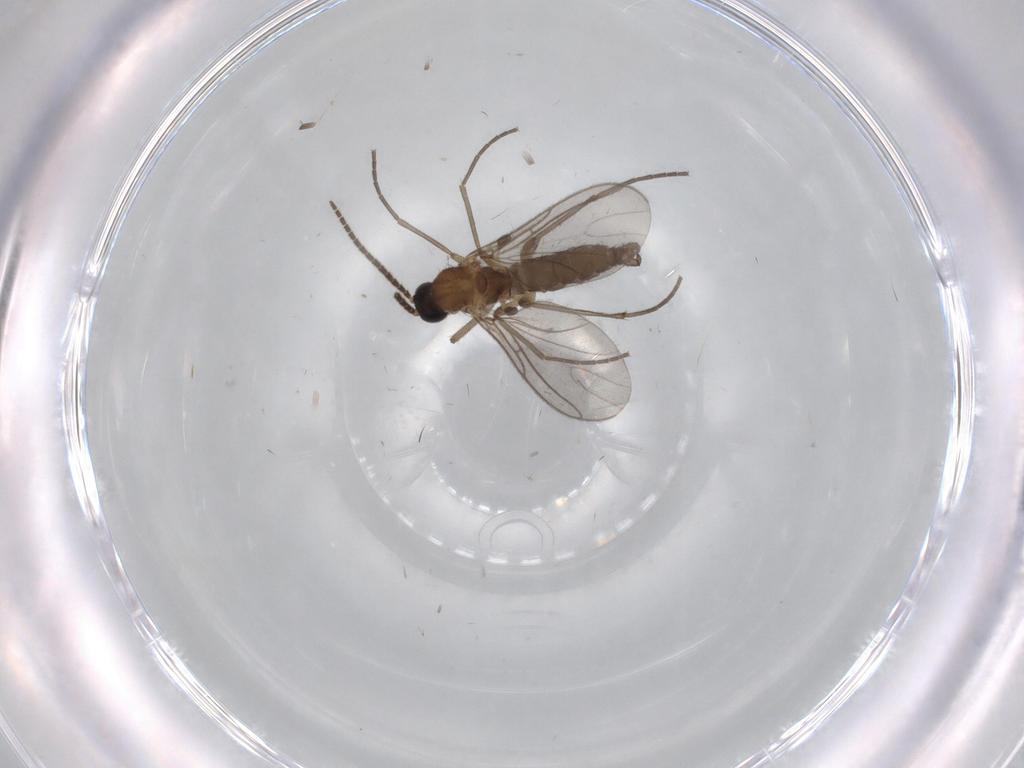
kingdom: Animalia
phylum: Arthropoda
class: Insecta
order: Diptera
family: Sciaridae
